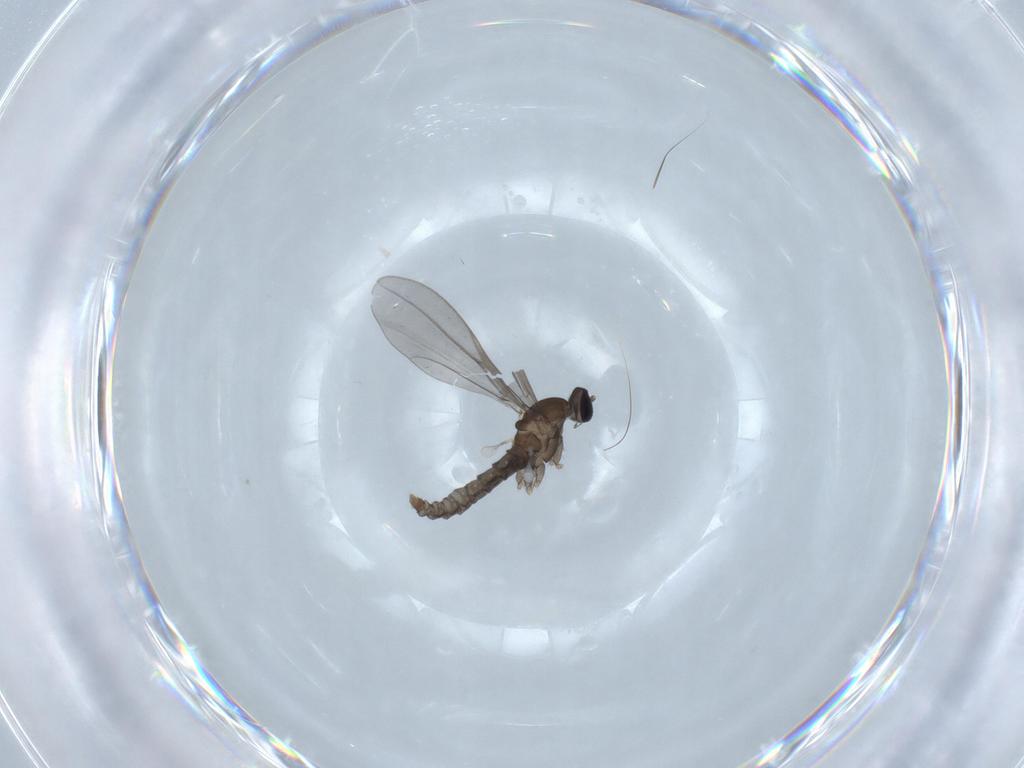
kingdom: Animalia
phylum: Arthropoda
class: Insecta
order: Diptera
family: Cecidomyiidae
